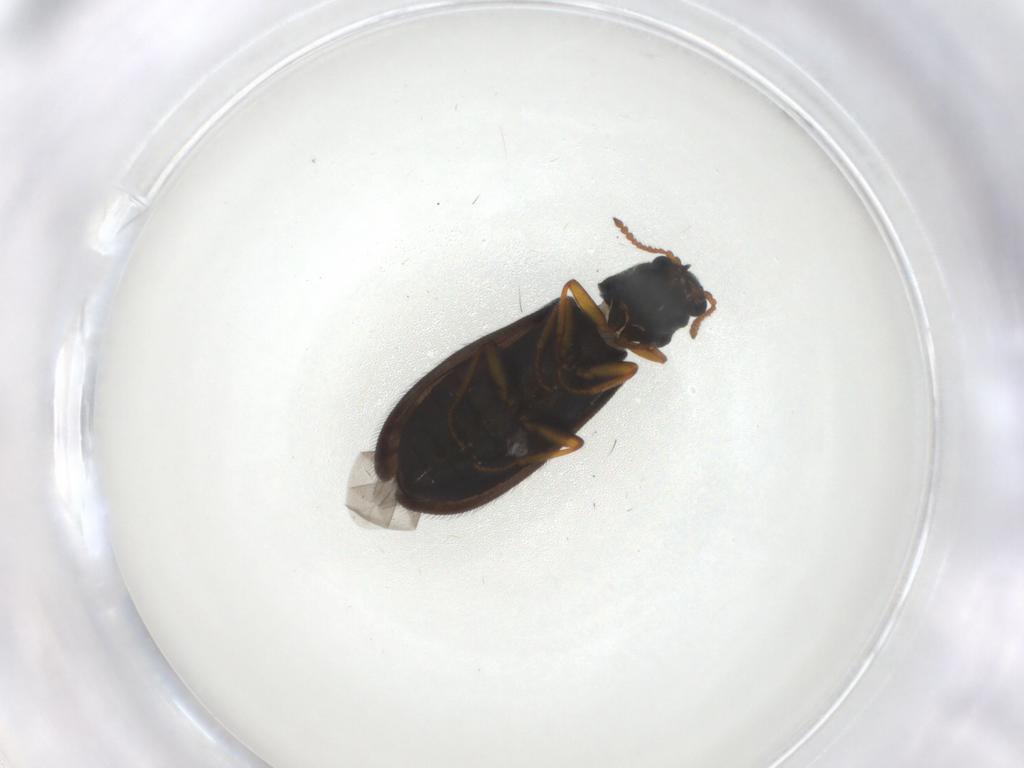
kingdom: Animalia
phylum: Arthropoda
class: Insecta
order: Coleoptera
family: Melyridae
